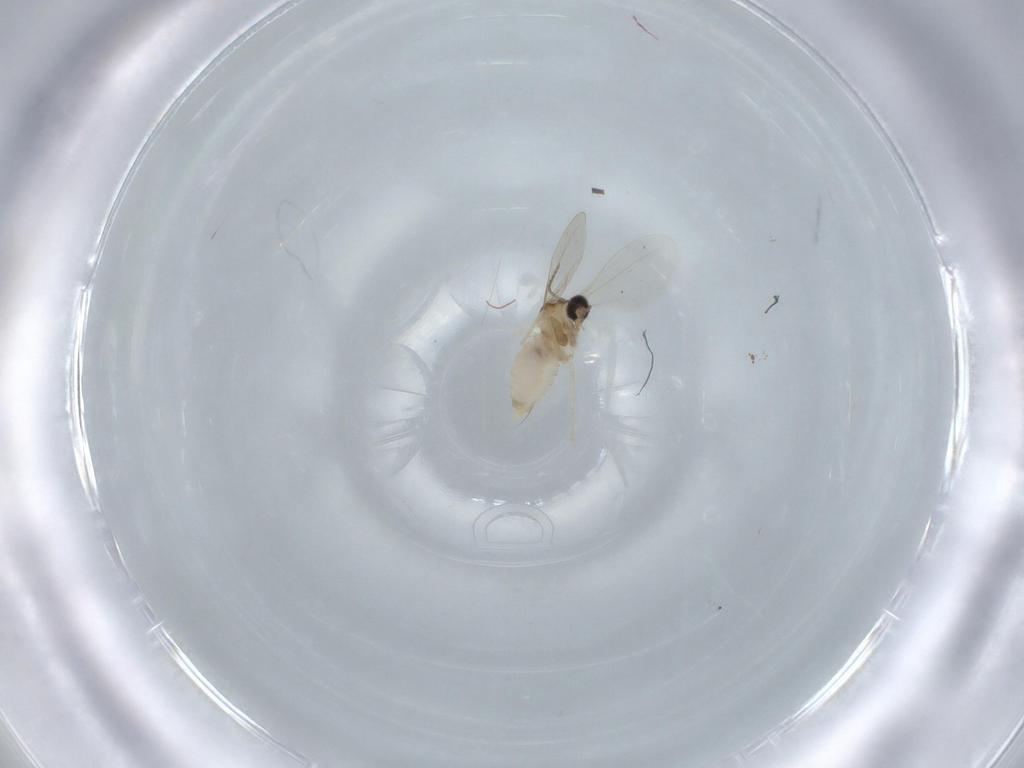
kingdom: Animalia
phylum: Arthropoda
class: Insecta
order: Diptera
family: Cecidomyiidae
